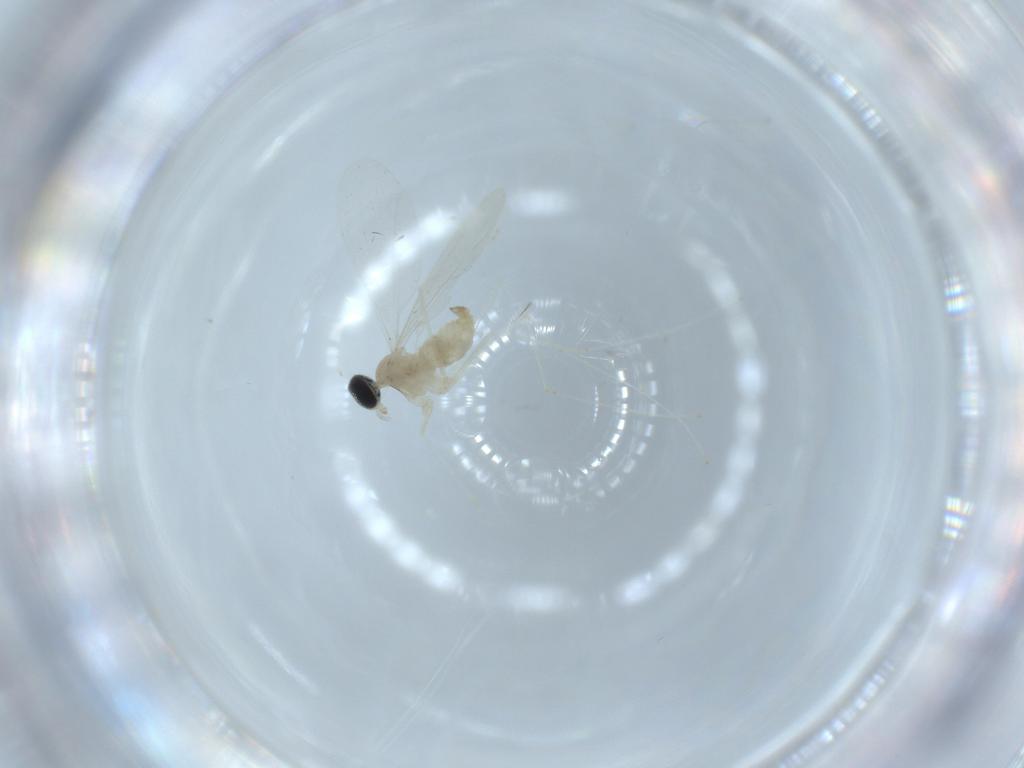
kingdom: Animalia
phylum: Arthropoda
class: Insecta
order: Diptera
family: Cecidomyiidae
